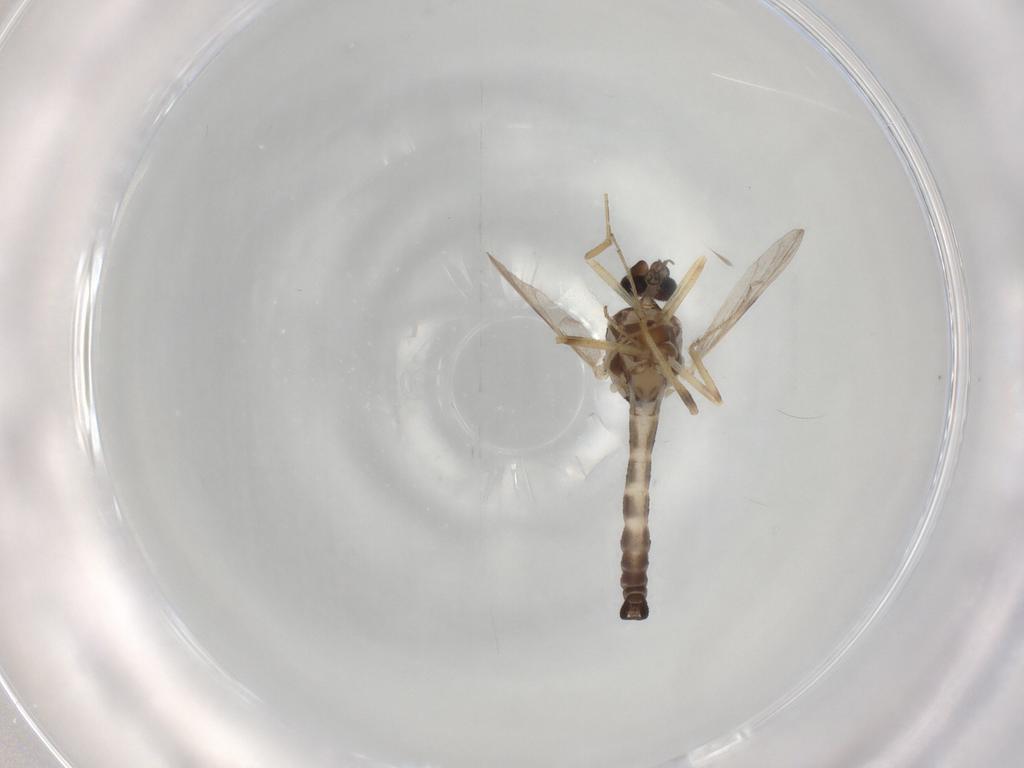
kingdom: Animalia
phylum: Arthropoda
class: Insecta
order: Diptera
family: Ceratopogonidae
